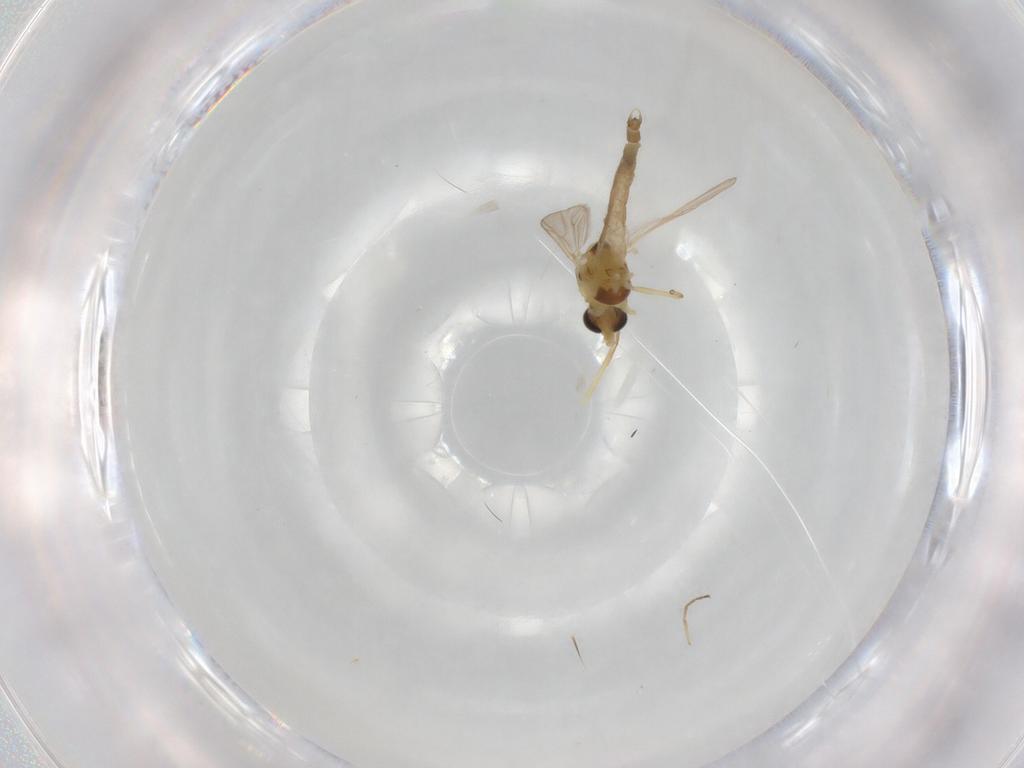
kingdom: Animalia
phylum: Arthropoda
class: Insecta
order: Diptera
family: Chironomidae
